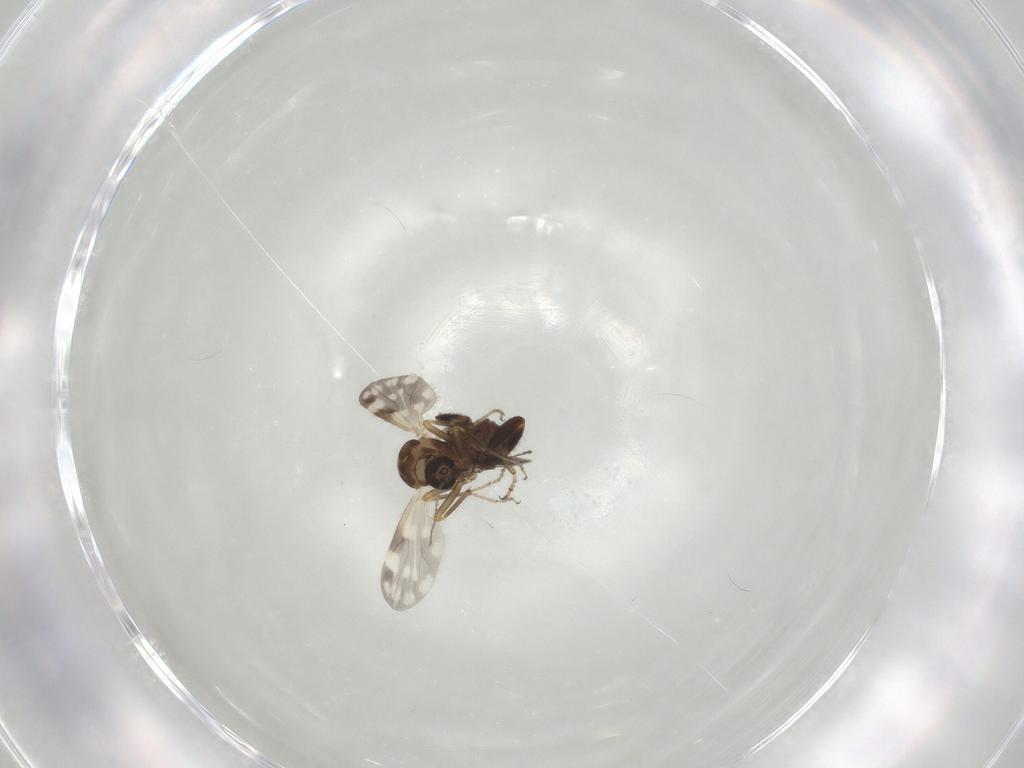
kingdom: Animalia
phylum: Arthropoda
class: Insecta
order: Diptera
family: Ceratopogonidae
